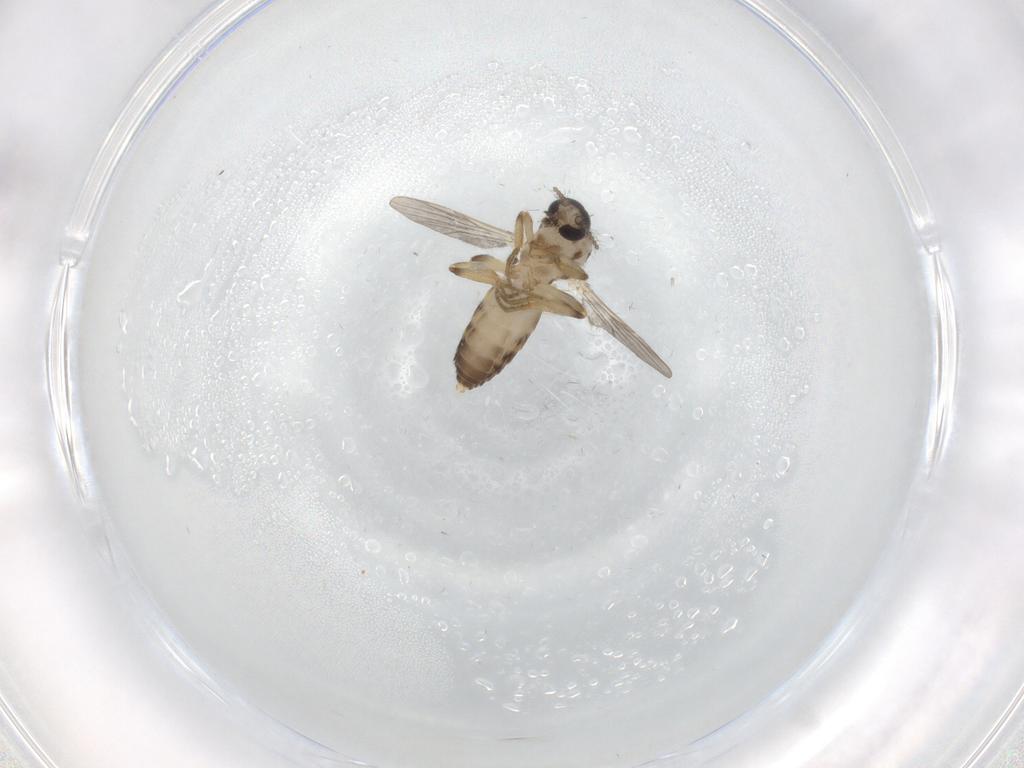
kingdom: Animalia
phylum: Arthropoda
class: Insecta
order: Diptera
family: Ceratopogonidae
